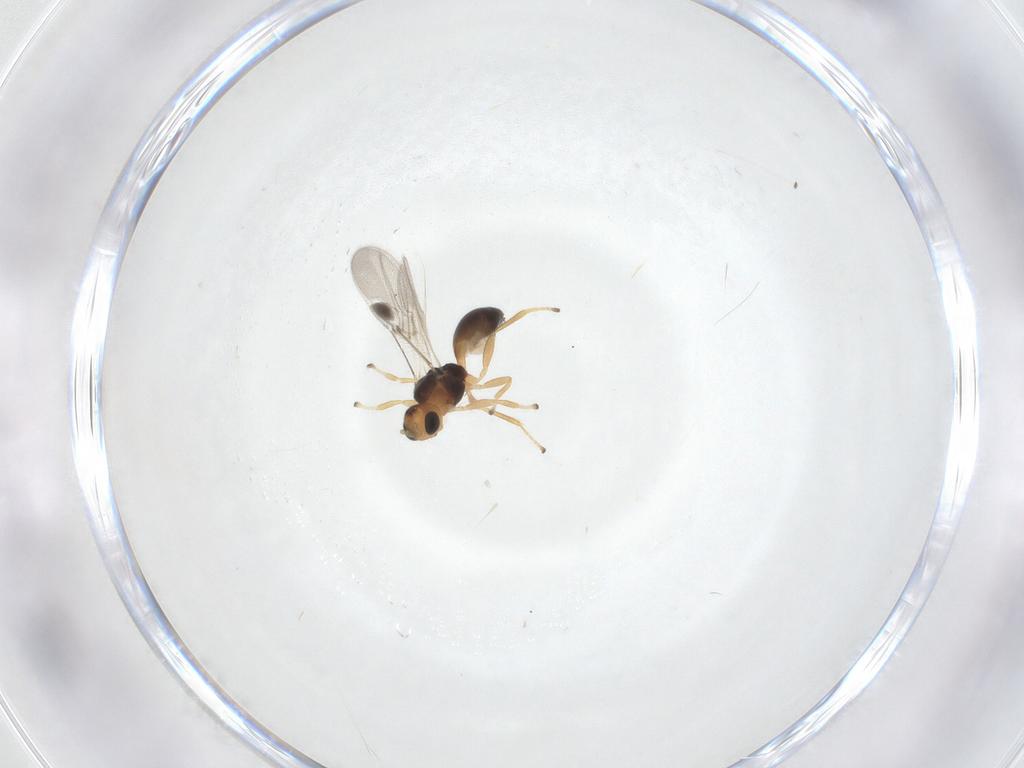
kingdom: Animalia
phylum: Arthropoda
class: Insecta
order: Hymenoptera
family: Braconidae
